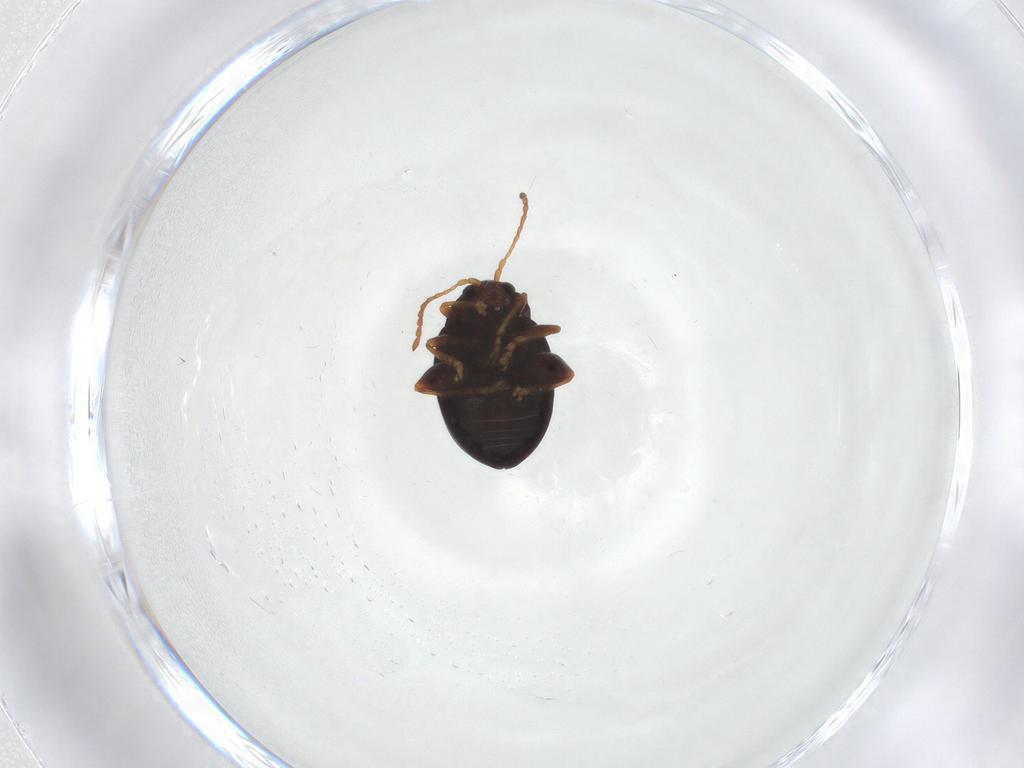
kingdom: Animalia
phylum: Arthropoda
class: Insecta
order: Coleoptera
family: Chrysomelidae
